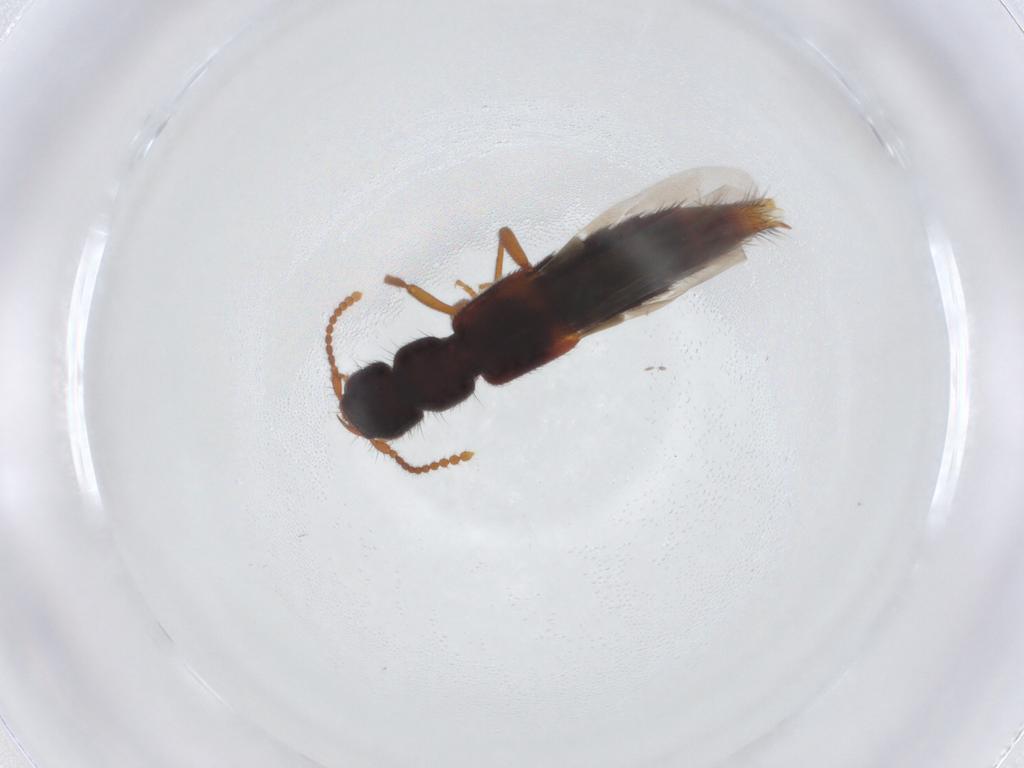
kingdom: Animalia
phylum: Arthropoda
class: Insecta
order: Coleoptera
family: Staphylinidae
